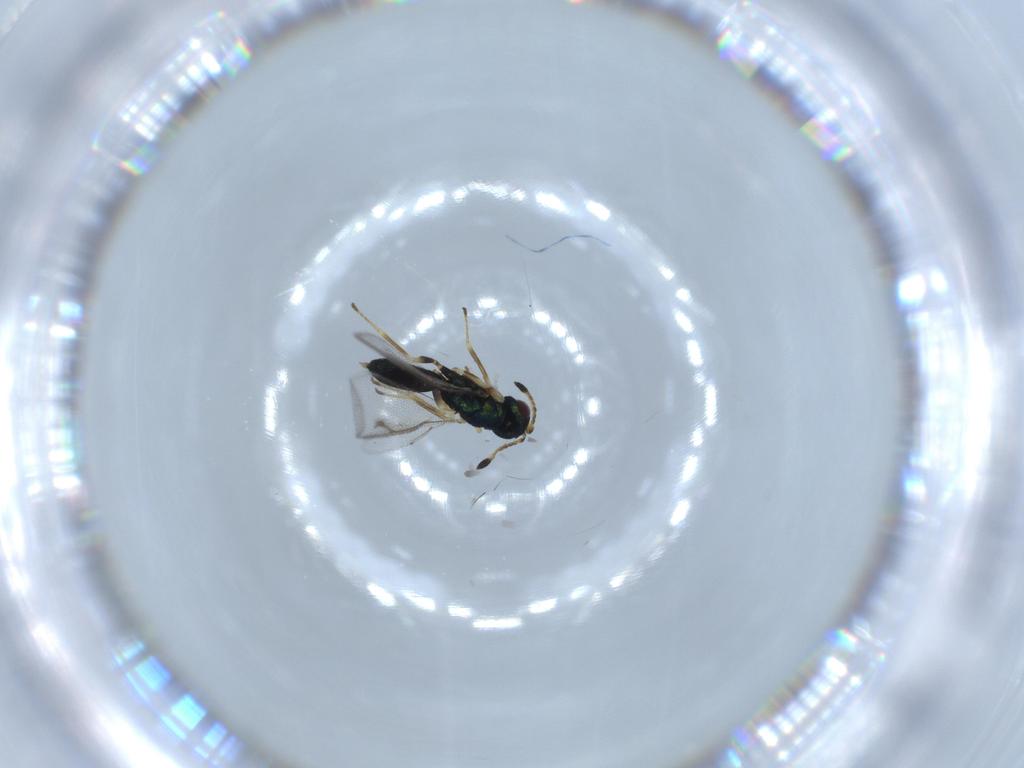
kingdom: Animalia
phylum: Arthropoda
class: Insecta
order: Hymenoptera
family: Pteromalidae
